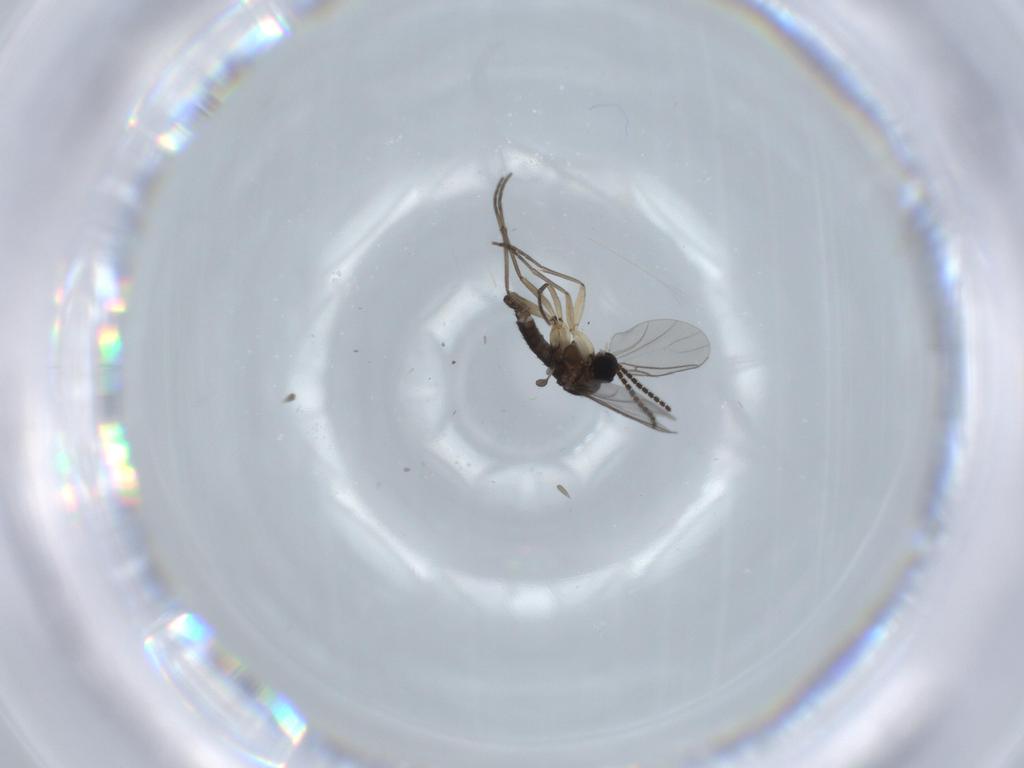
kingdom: Animalia
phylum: Arthropoda
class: Insecta
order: Diptera
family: Sciaridae
